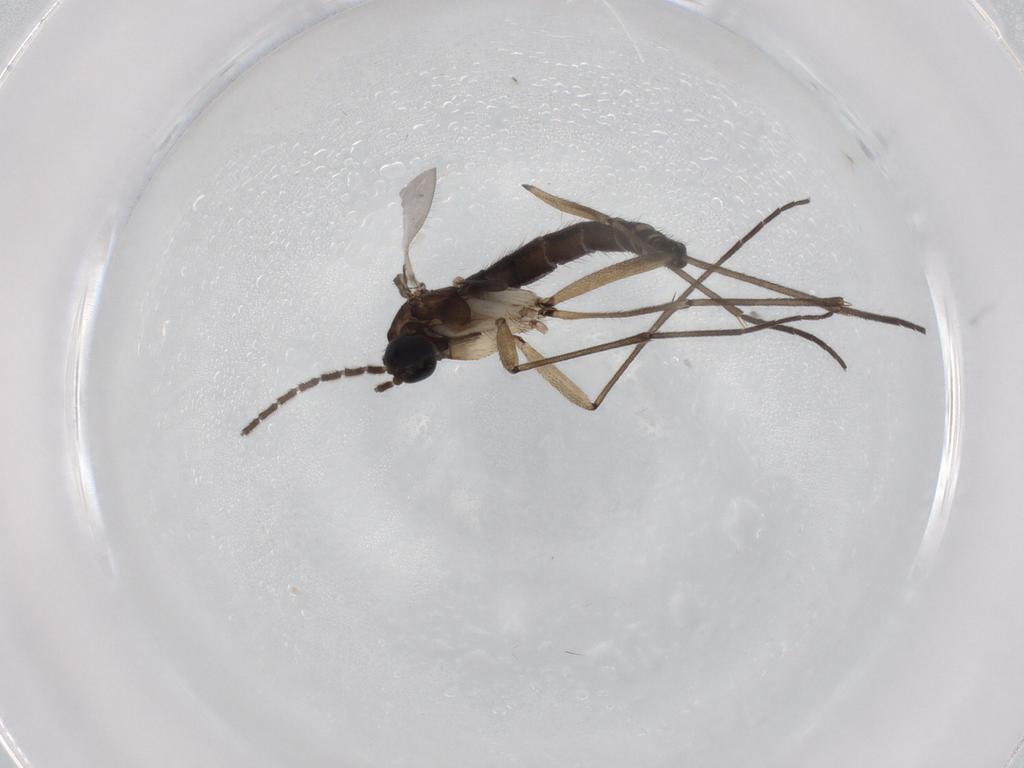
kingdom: Animalia
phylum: Arthropoda
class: Insecta
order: Diptera
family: Sciaridae
